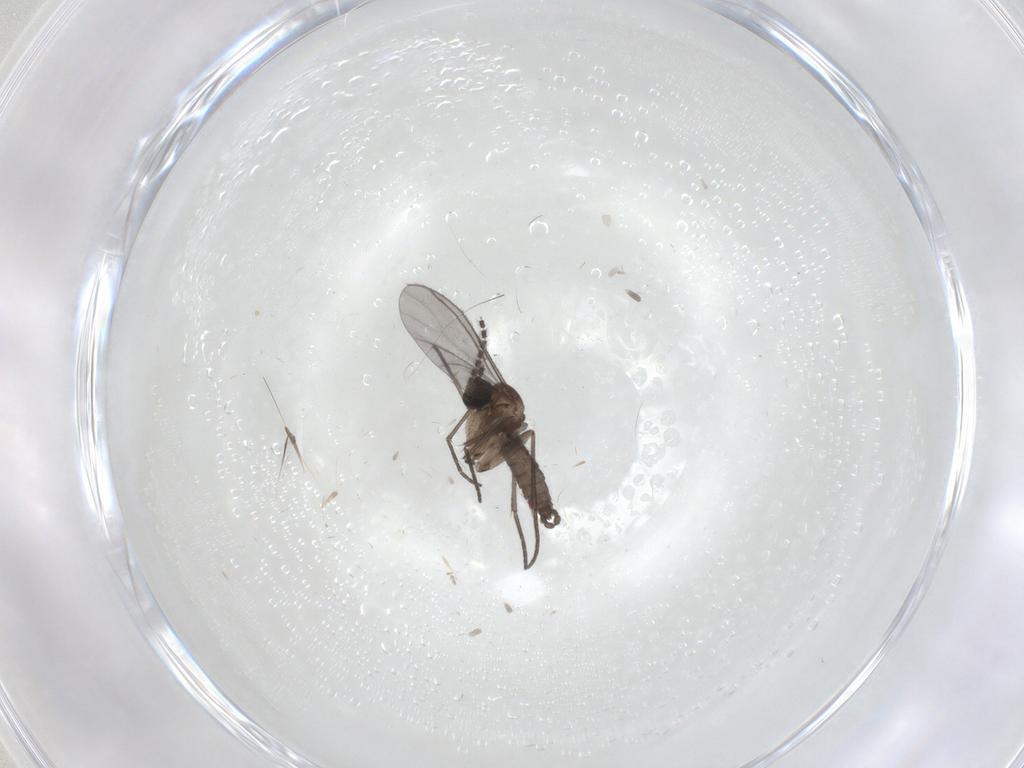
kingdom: Animalia
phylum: Arthropoda
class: Insecta
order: Diptera
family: Sciaridae
